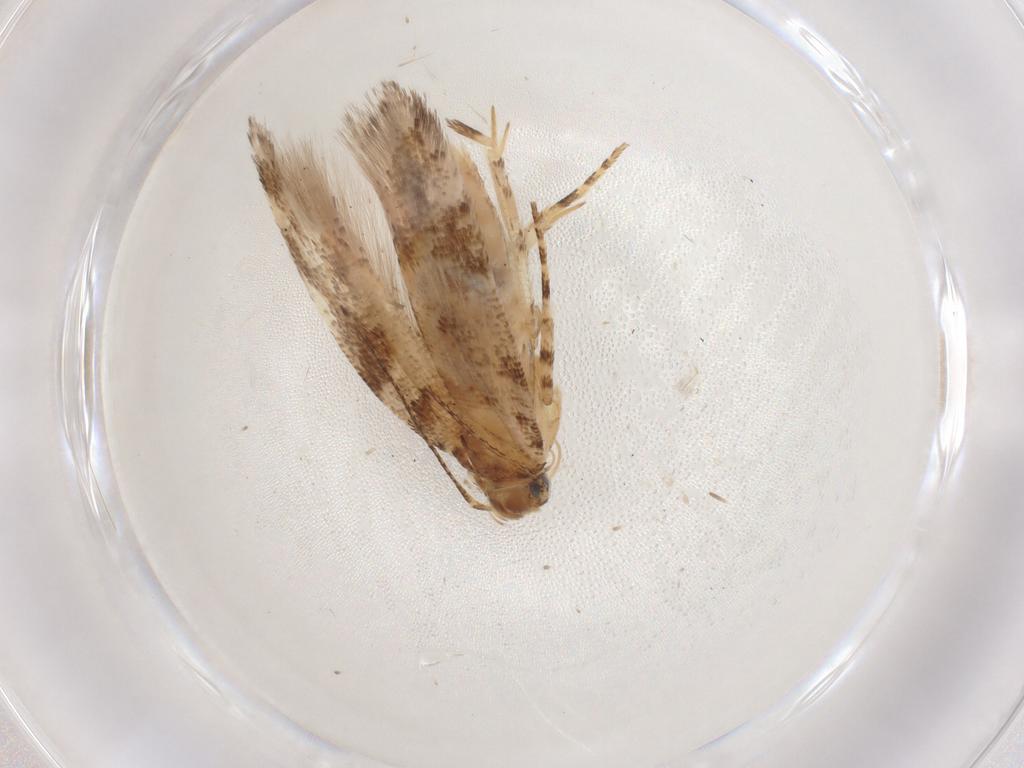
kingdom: Animalia
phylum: Arthropoda
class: Insecta
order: Lepidoptera
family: Gelechiidae
